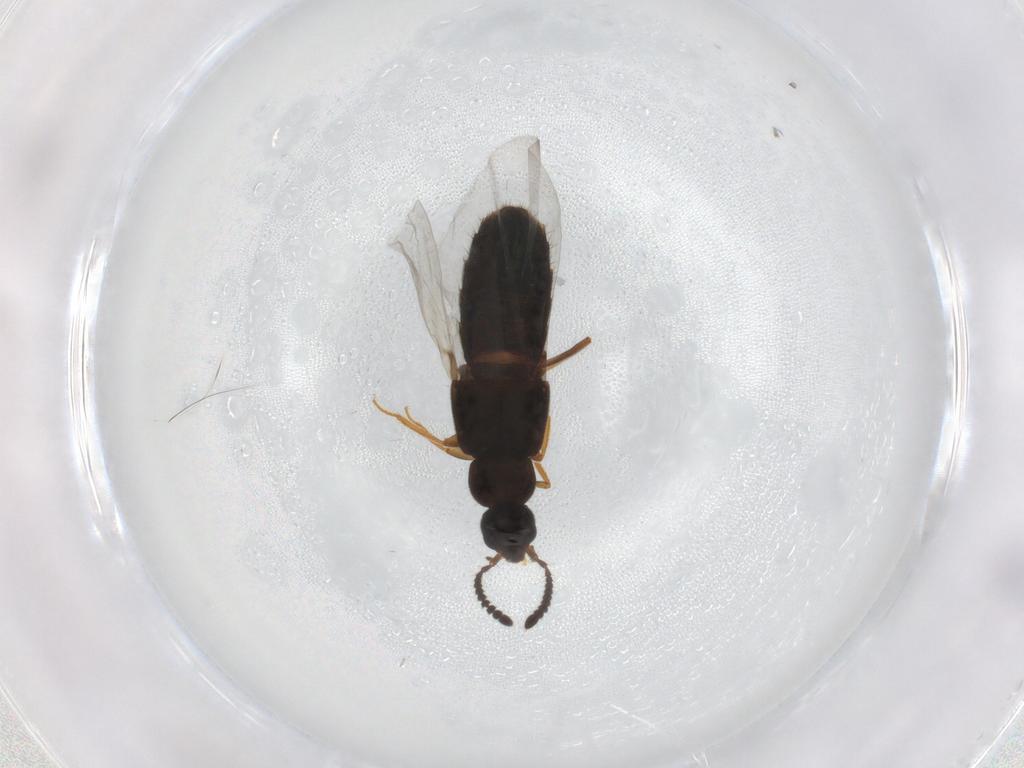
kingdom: Animalia
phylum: Arthropoda
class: Insecta
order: Coleoptera
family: Staphylinidae
